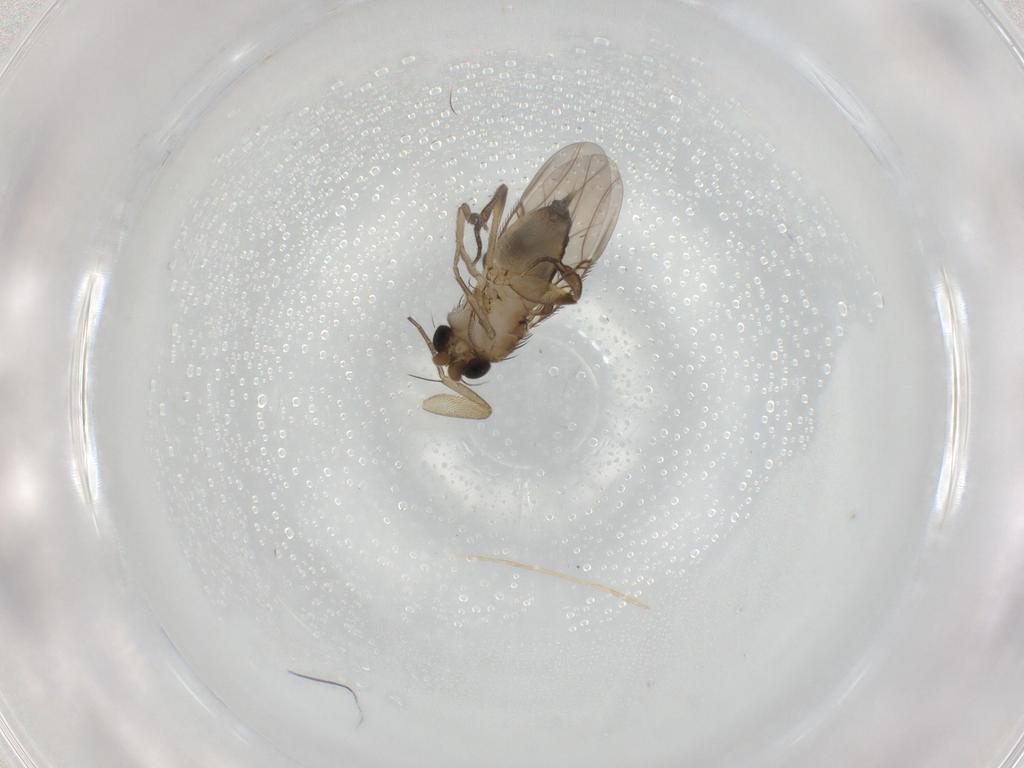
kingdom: Animalia
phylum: Arthropoda
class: Insecta
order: Diptera
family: Phoridae
